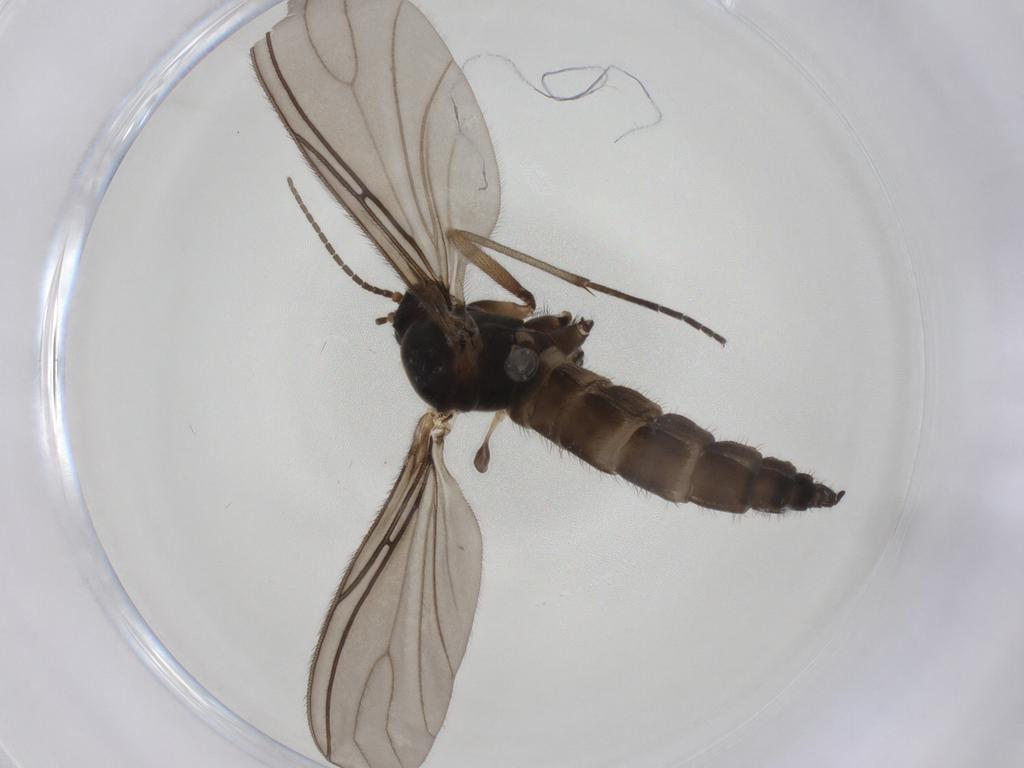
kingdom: Animalia
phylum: Arthropoda
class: Insecta
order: Diptera
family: Sciaridae
